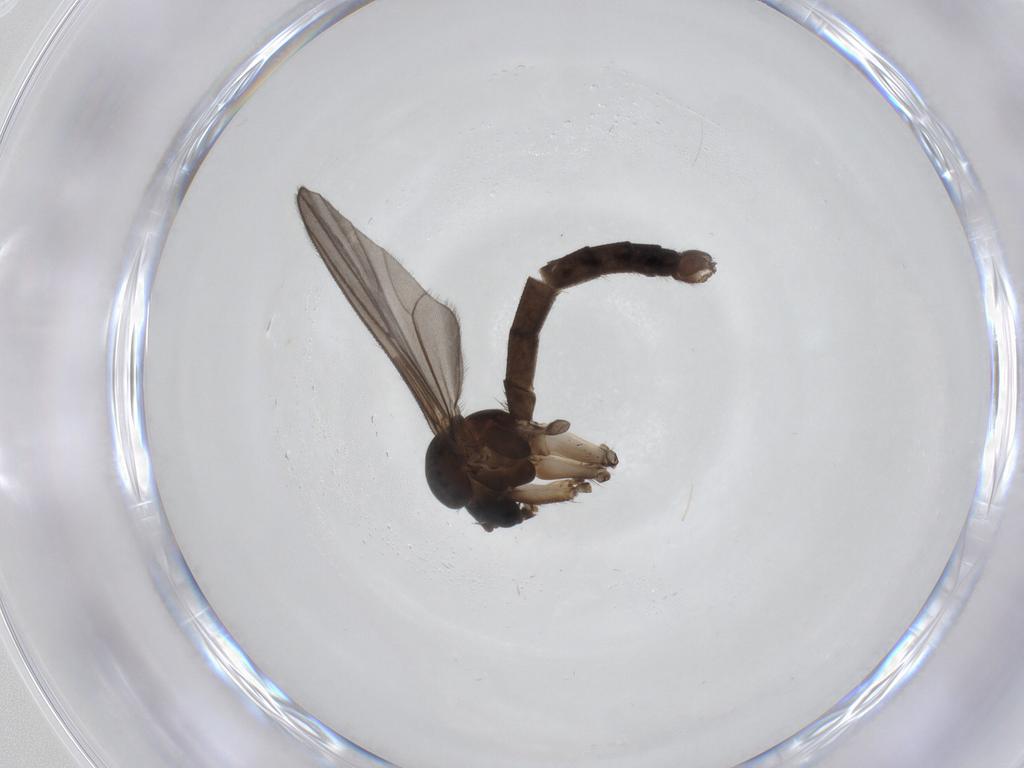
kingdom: Animalia
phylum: Arthropoda
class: Insecta
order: Diptera
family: Mycetophilidae
